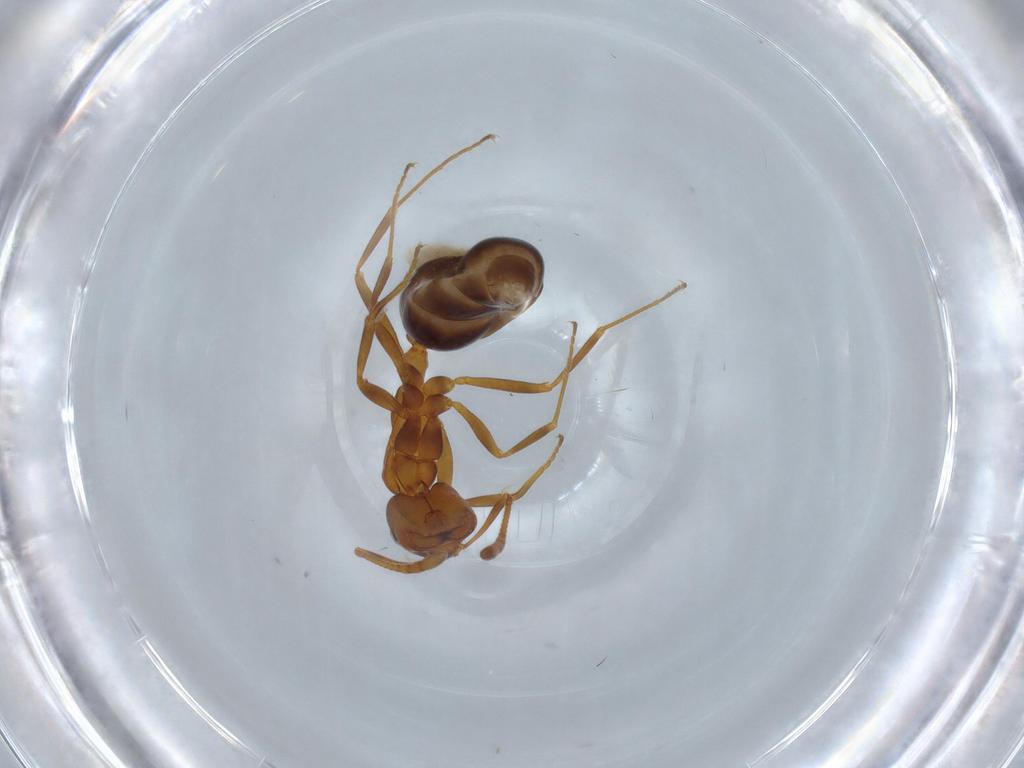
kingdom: Animalia
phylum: Arthropoda
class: Insecta
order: Hymenoptera
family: Formicidae
